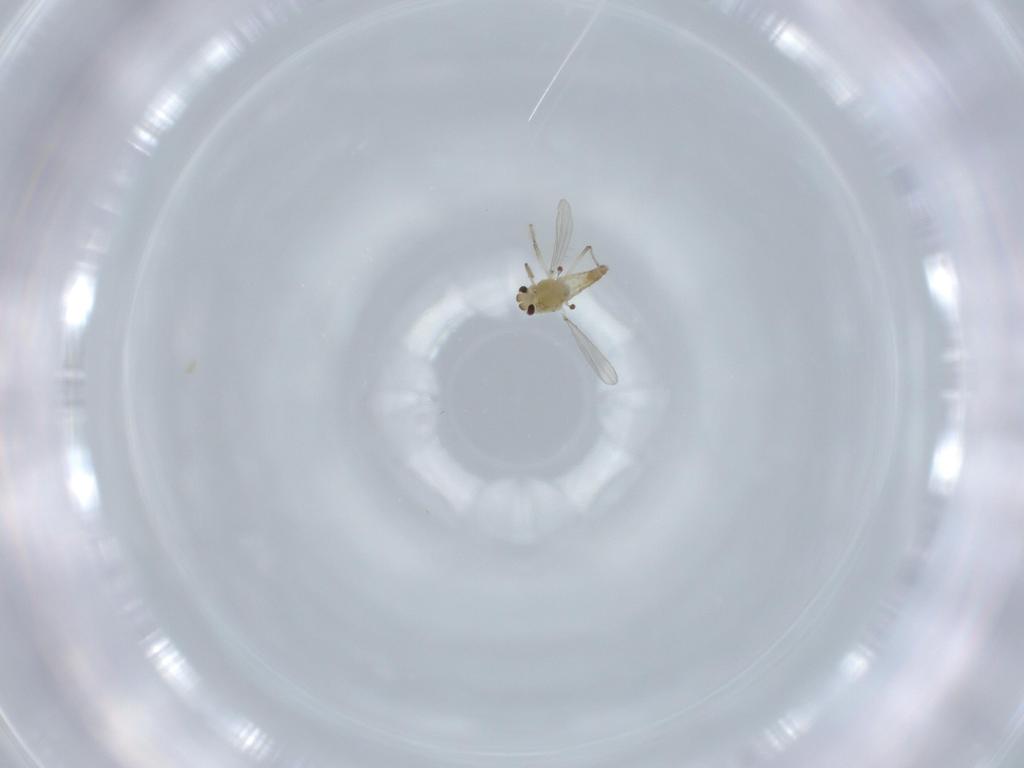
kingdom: Animalia
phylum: Arthropoda
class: Insecta
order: Diptera
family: Chironomidae
